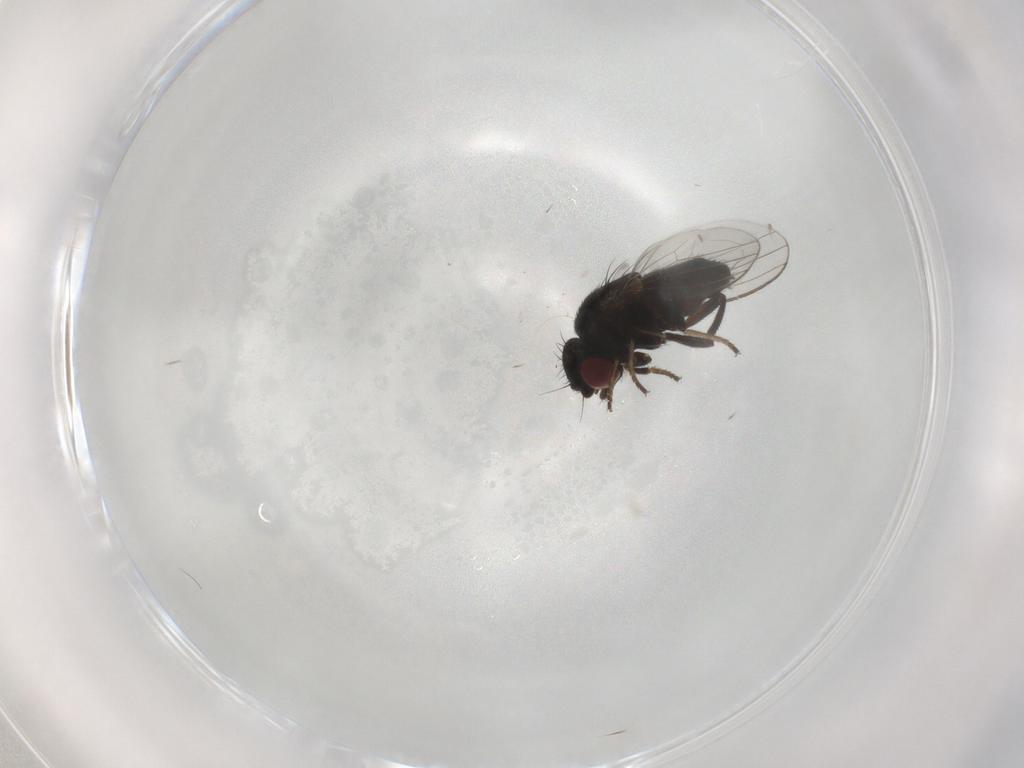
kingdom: Animalia
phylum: Arthropoda
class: Insecta
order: Diptera
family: Milichiidae
